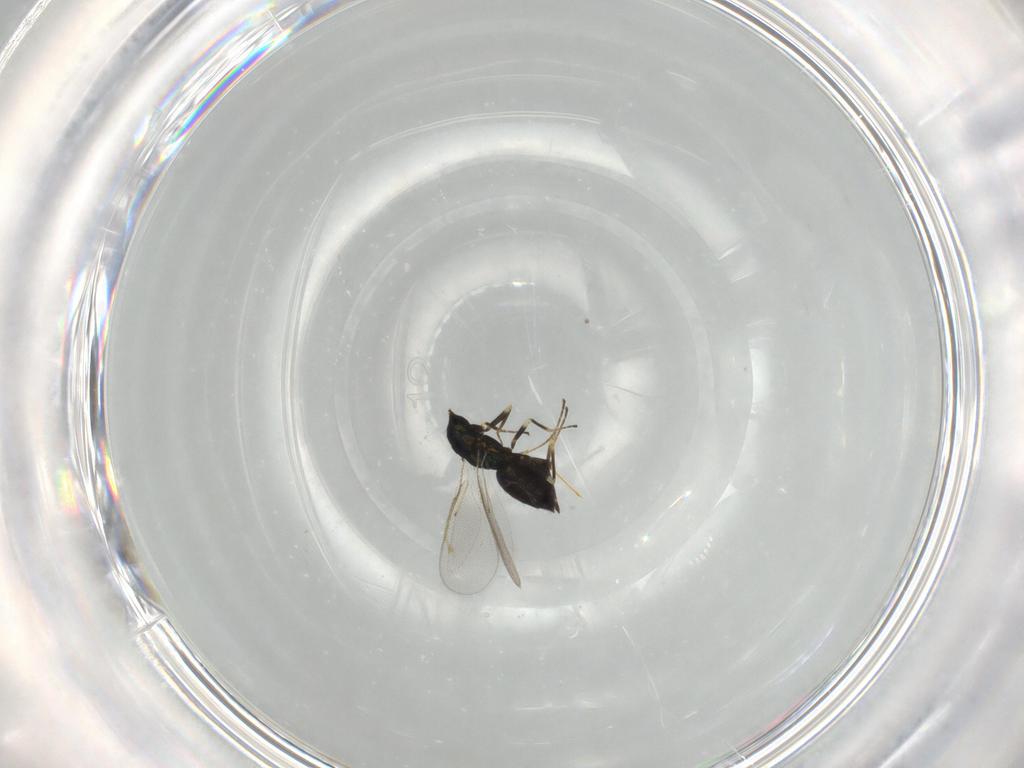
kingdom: Animalia
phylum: Arthropoda
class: Insecta
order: Hymenoptera
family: Eulophidae
